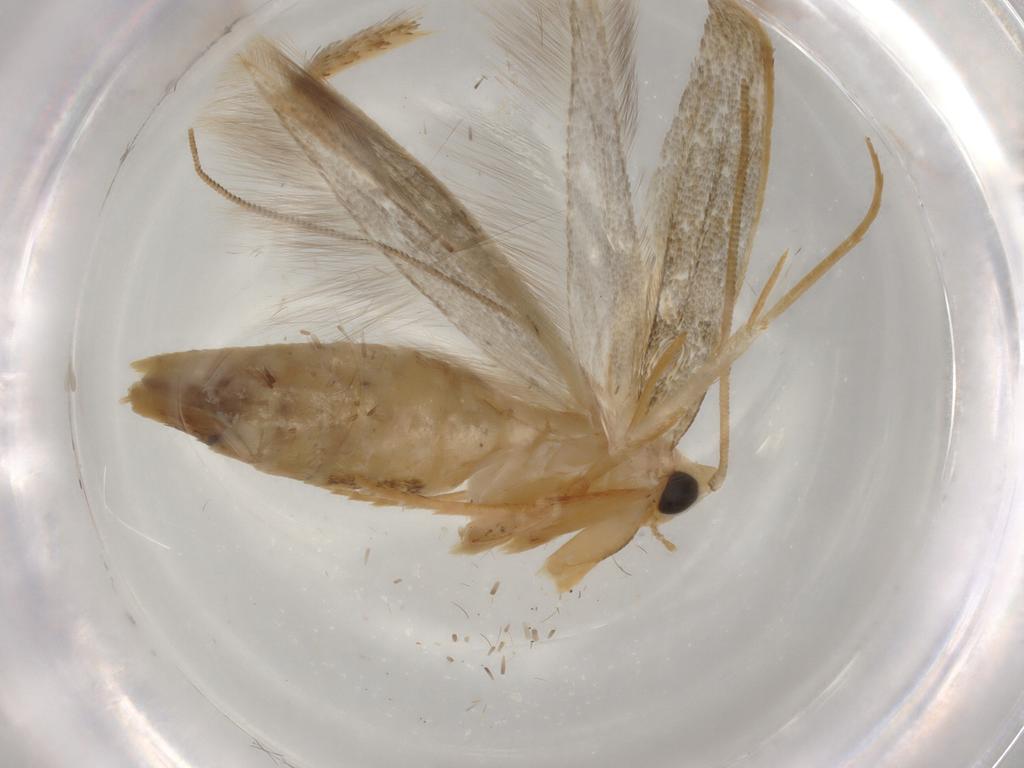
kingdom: Animalia
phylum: Arthropoda
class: Insecta
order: Lepidoptera
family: Tineidae
